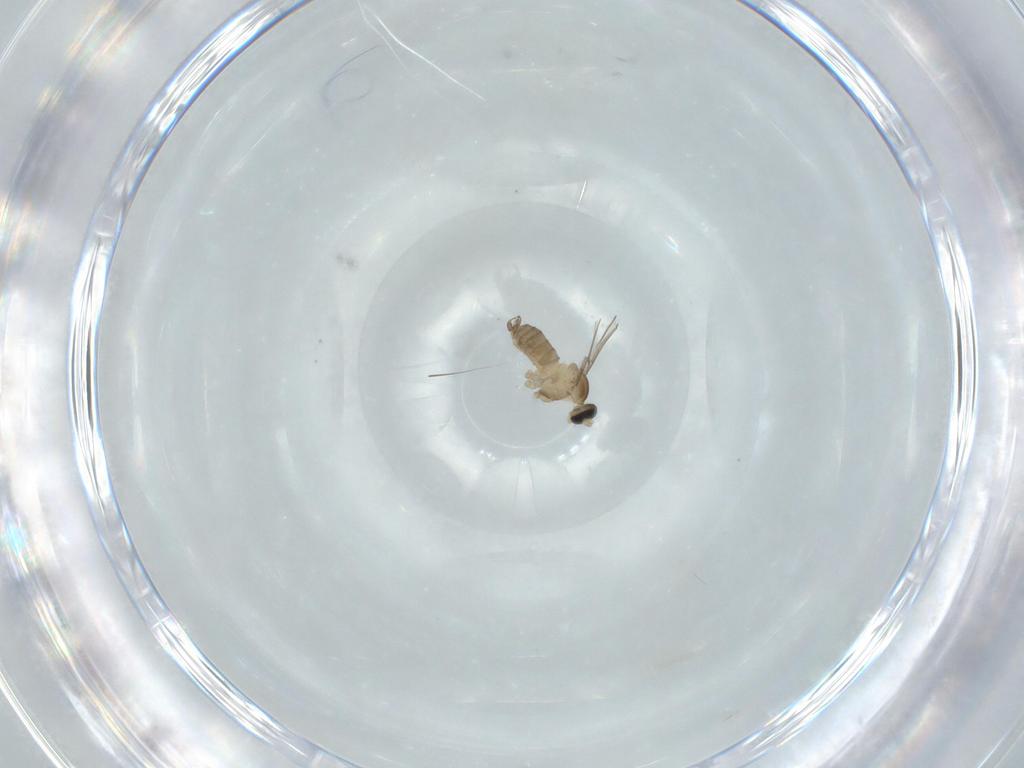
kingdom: Animalia
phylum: Arthropoda
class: Insecta
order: Diptera
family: Cecidomyiidae
